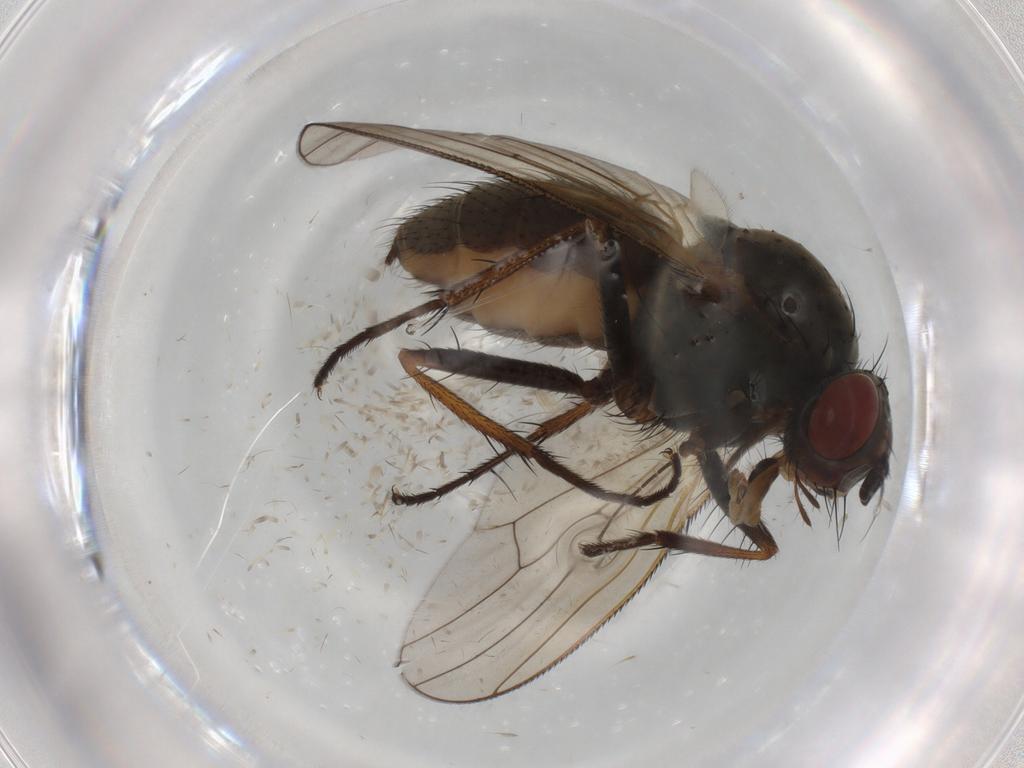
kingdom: Animalia
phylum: Arthropoda
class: Insecta
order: Diptera
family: Anthomyiidae
